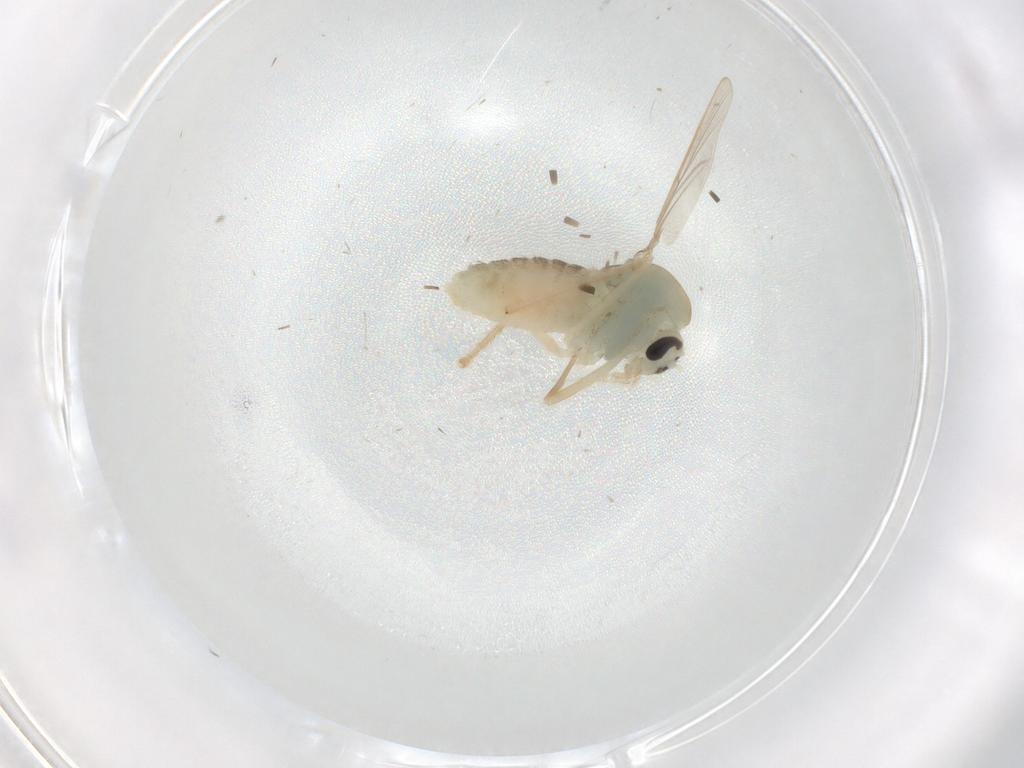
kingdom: Animalia
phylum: Arthropoda
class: Insecta
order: Diptera
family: Chironomidae
